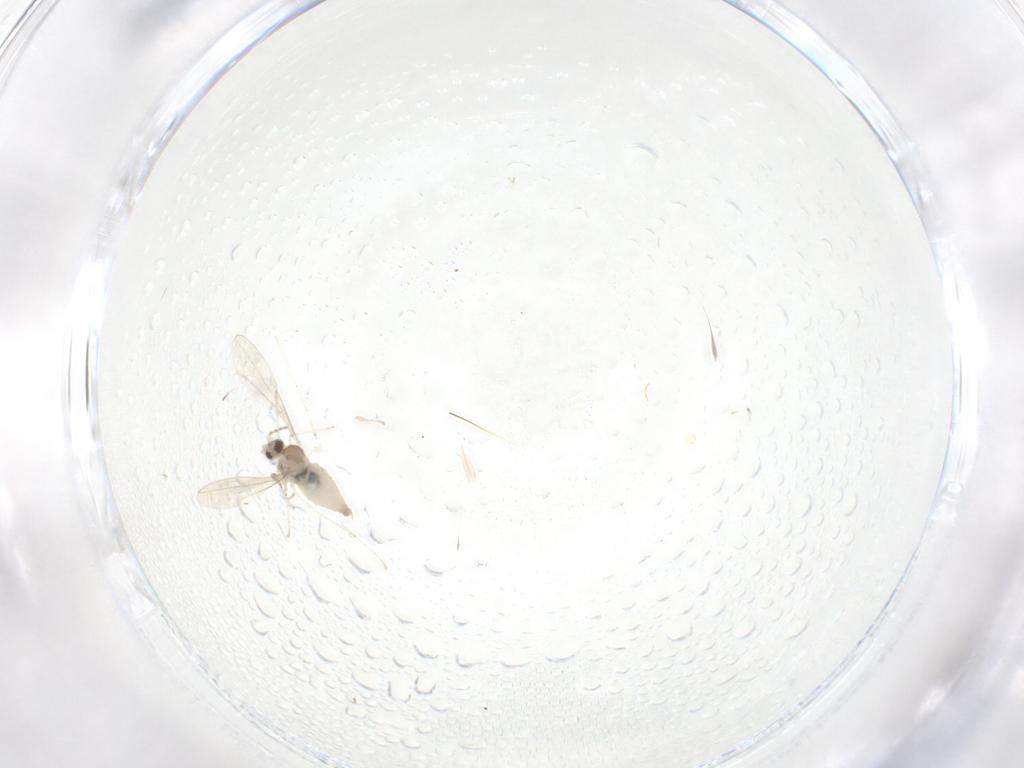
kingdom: Animalia
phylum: Arthropoda
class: Insecta
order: Diptera
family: Cecidomyiidae
